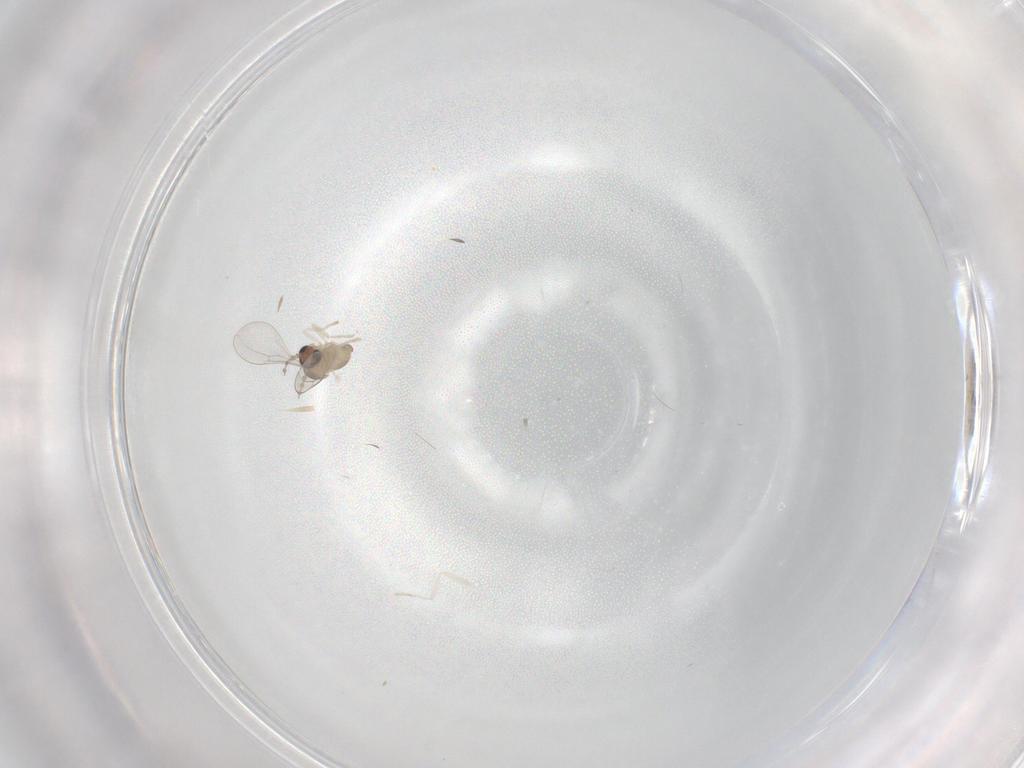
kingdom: Animalia
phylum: Arthropoda
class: Insecta
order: Diptera
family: Cecidomyiidae
